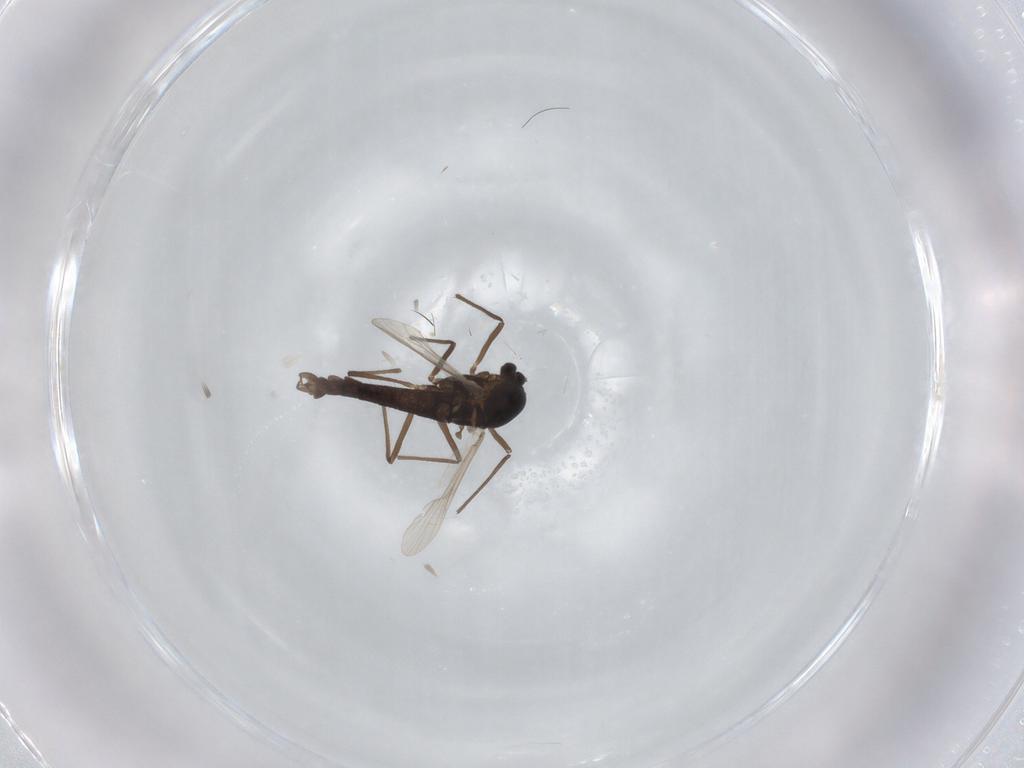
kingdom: Animalia
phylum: Arthropoda
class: Insecta
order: Diptera
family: Chironomidae
